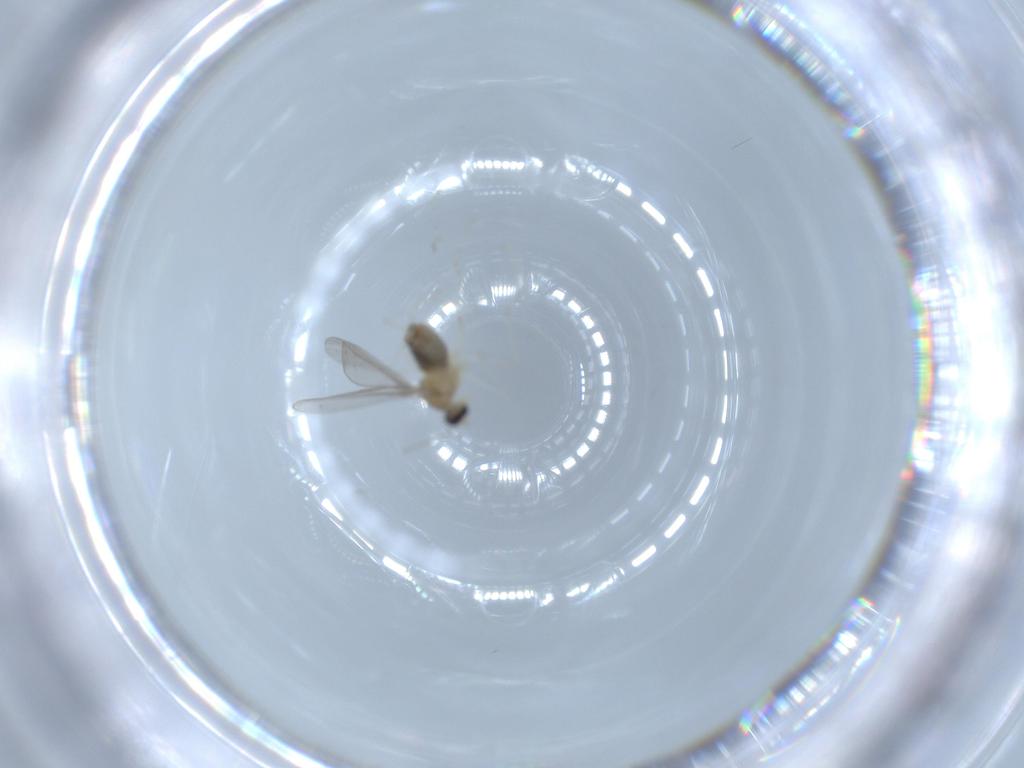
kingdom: Animalia
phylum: Arthropoda
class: Insecta
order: Diptera
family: Cecidomyiidae
